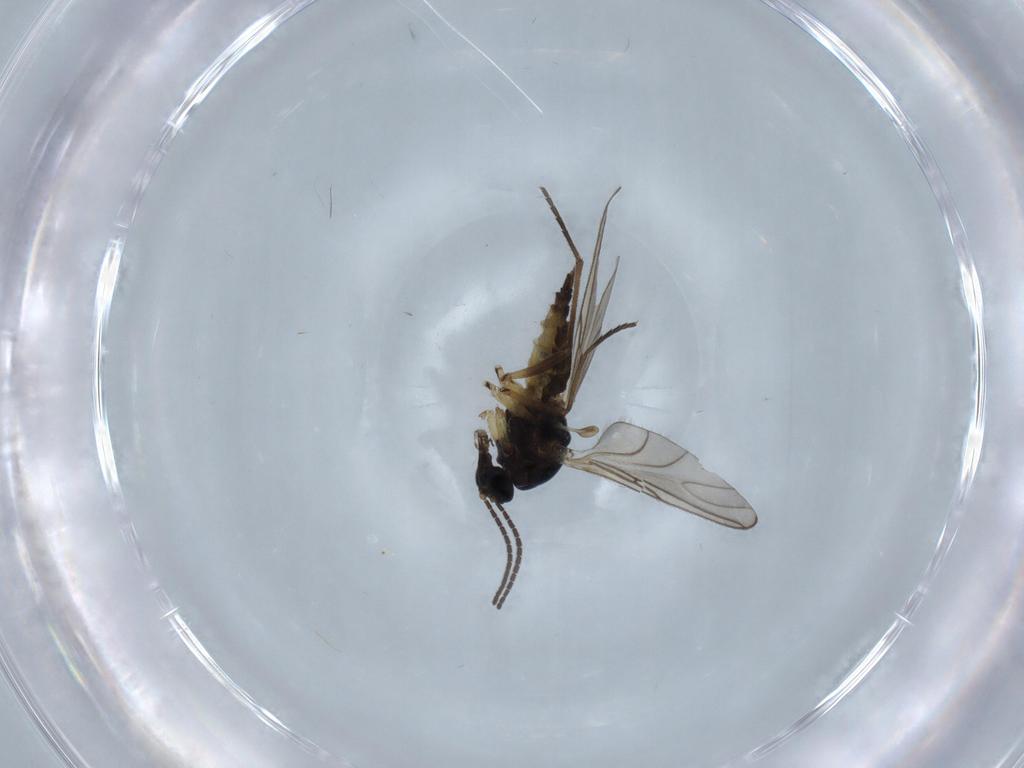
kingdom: Animalia
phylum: Arthropoda
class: Insecta
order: Diptera
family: Sciaridae
